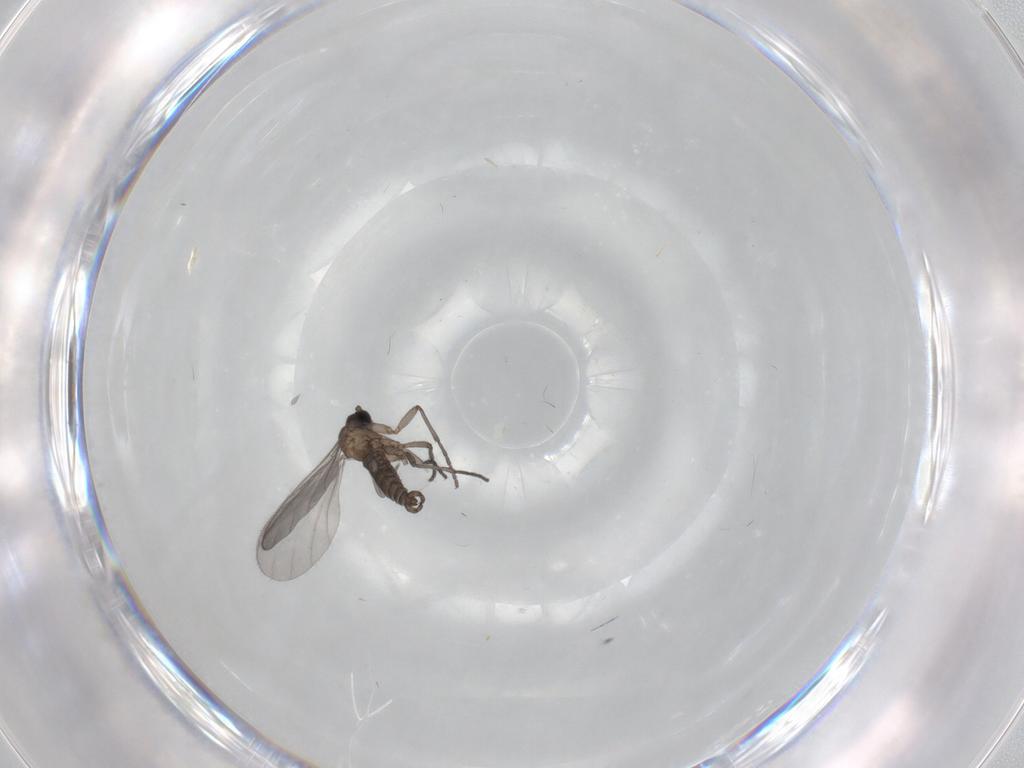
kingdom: Animalia
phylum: Arthropoda
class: Insecta
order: Diptera
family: Sciaridae
